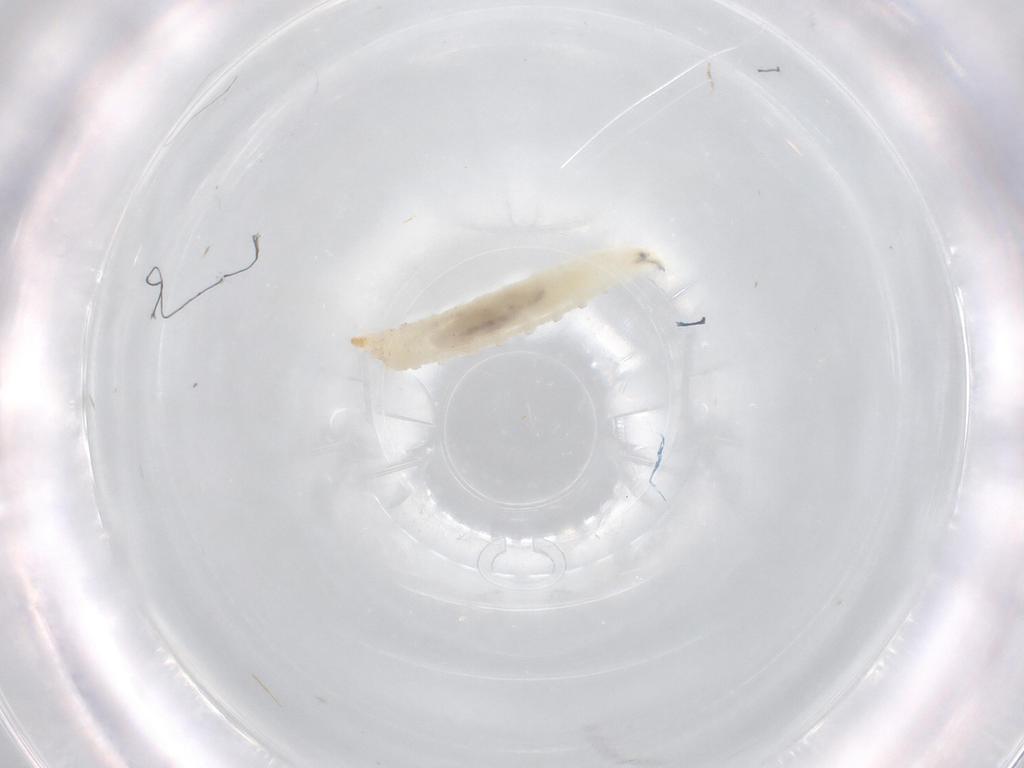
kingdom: Animalia
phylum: Arthropoda
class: Insecta
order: Diptera
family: Drosophilidae
